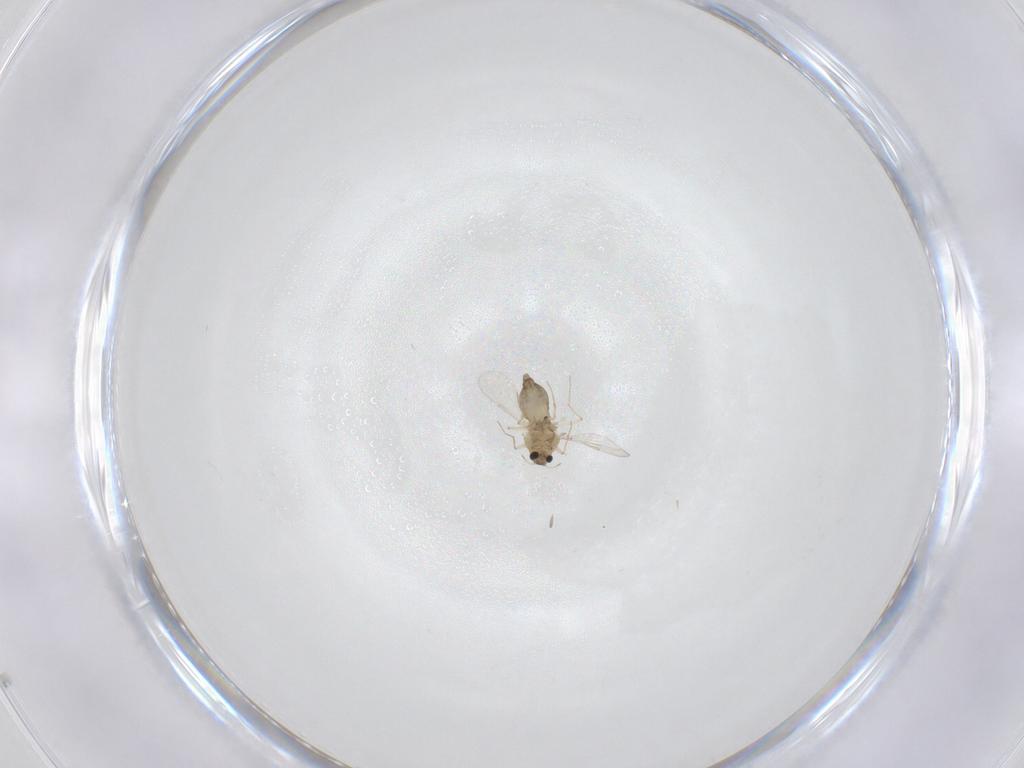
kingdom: Animalia
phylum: Arthropoda
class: Insecta
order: Diptera
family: Chironomidae
